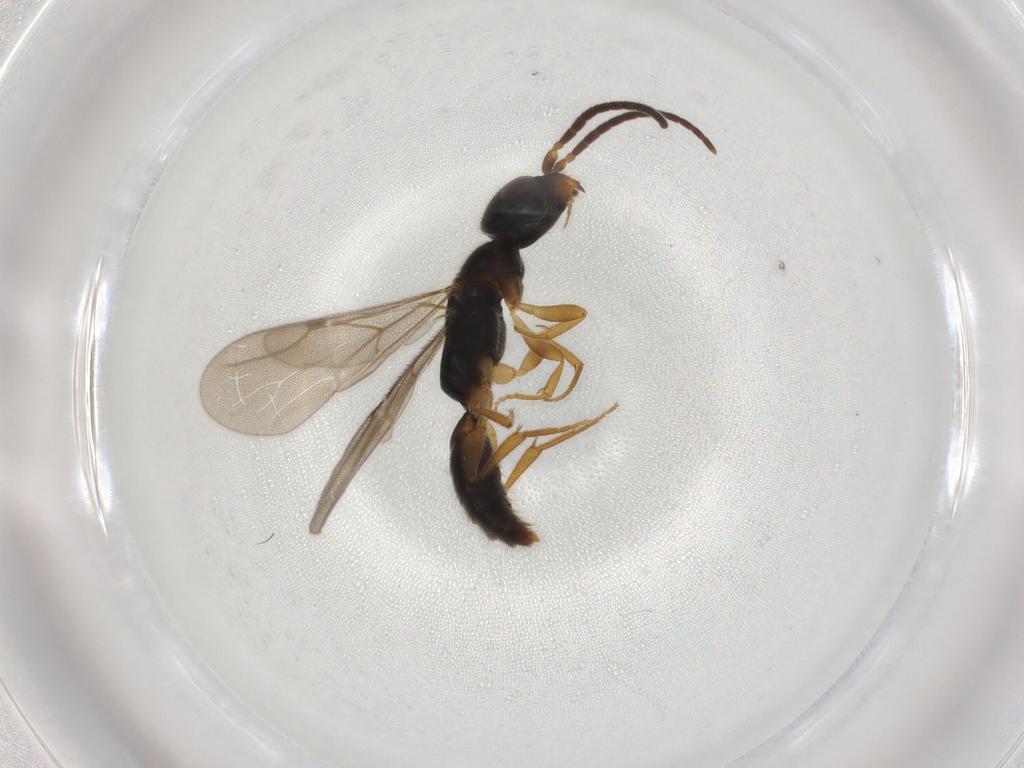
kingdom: Animalia
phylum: Arthropoda
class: Insecta
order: Hymenoptera
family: Bethylidae
